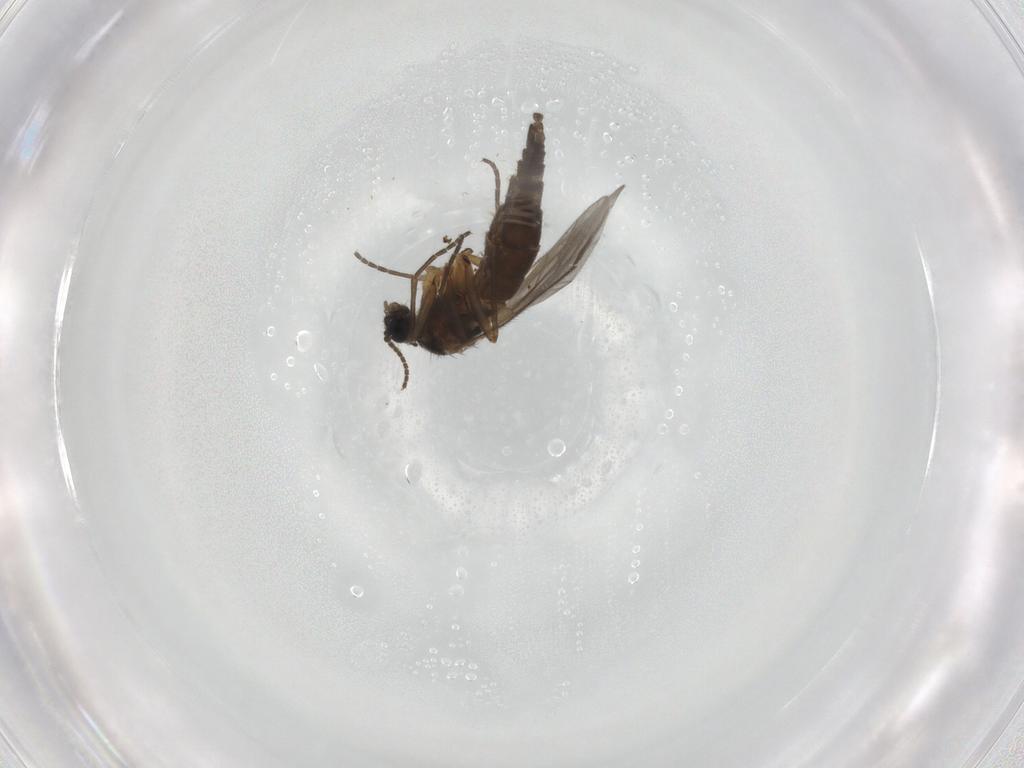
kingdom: Animalia
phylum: Arthropoda
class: Insecta
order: Diptera
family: Sciaridae
